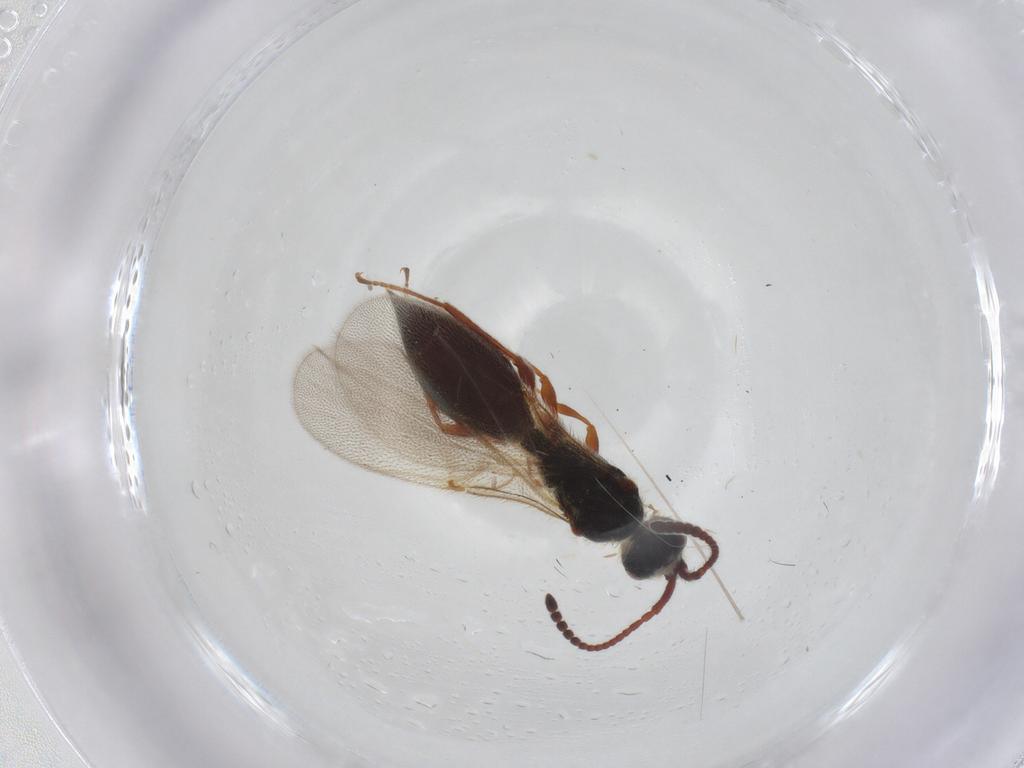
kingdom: Animalia
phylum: Arthropoda
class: Insecta
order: Hymenoptera
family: Diapriidae
